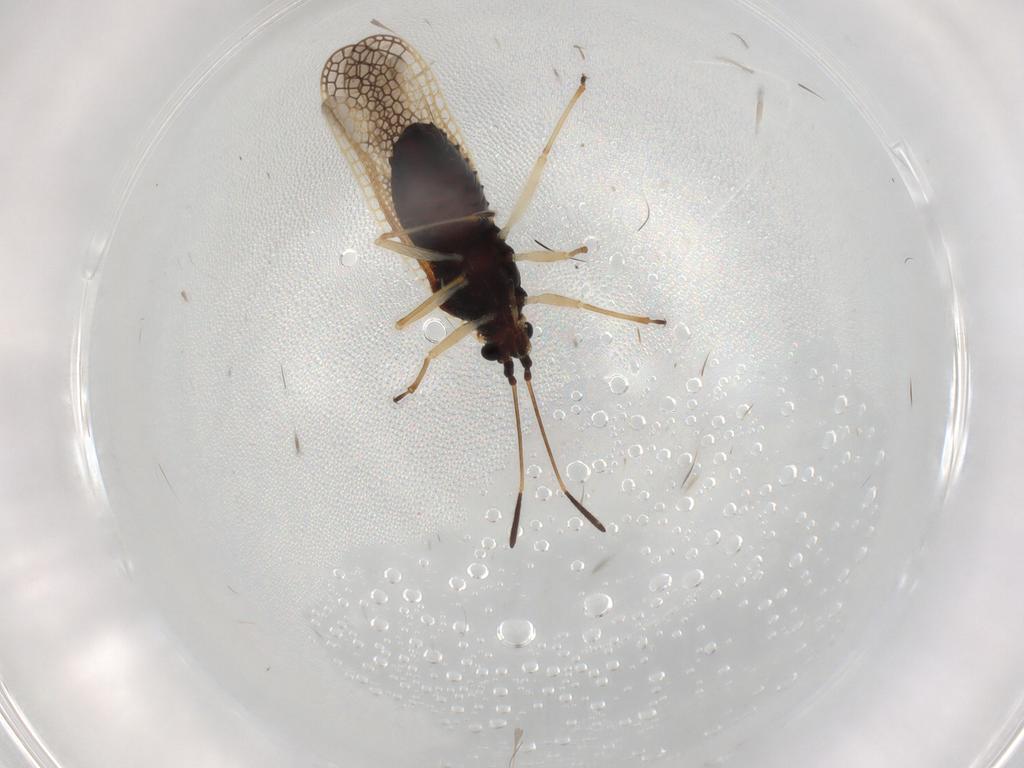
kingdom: Animalia
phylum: Arthropoda
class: Insecta
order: Hemiptera
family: Tingidae
